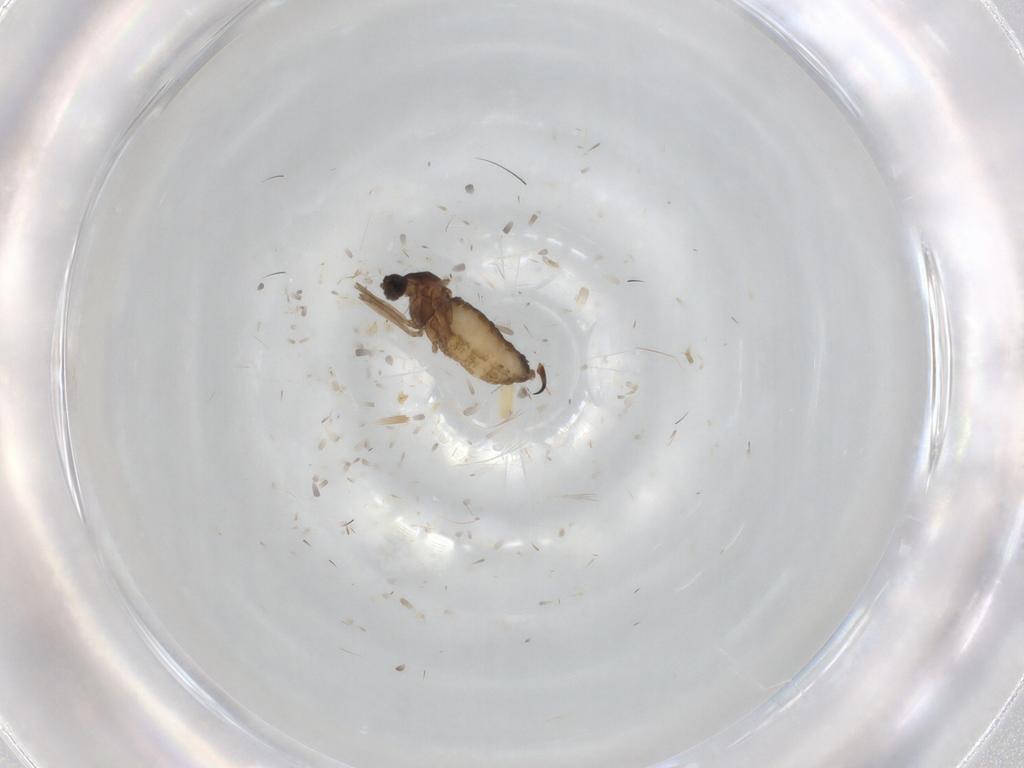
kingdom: Animalia
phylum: Arthropoda
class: Insecta
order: Diptera
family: Glossinidae
